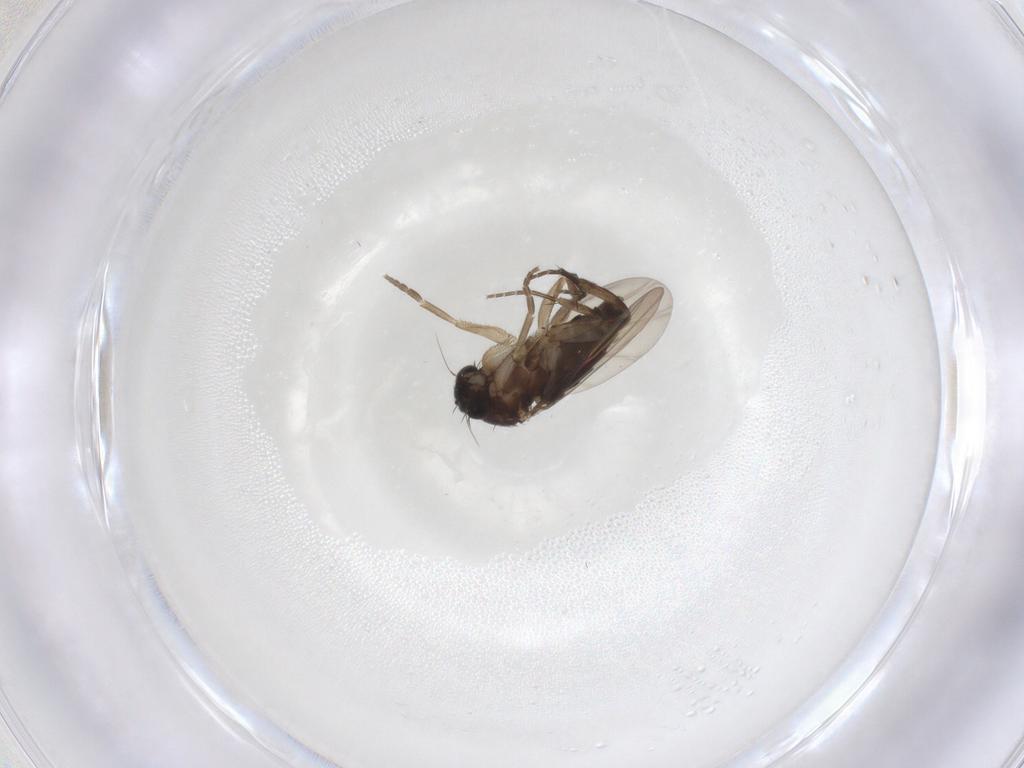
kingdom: Animalia
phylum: Arthropoda
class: Insecta
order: Diptera
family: Phoridae
